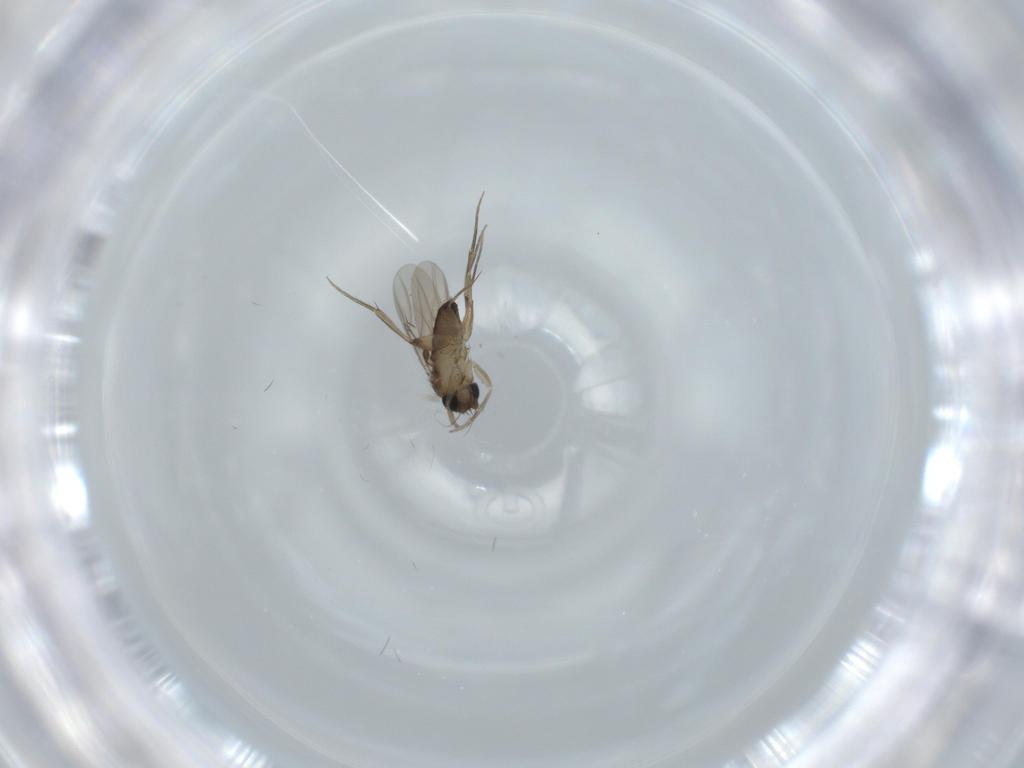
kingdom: Animalia
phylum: Arthropoda
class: Insecta
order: Diptera
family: Phoridae
